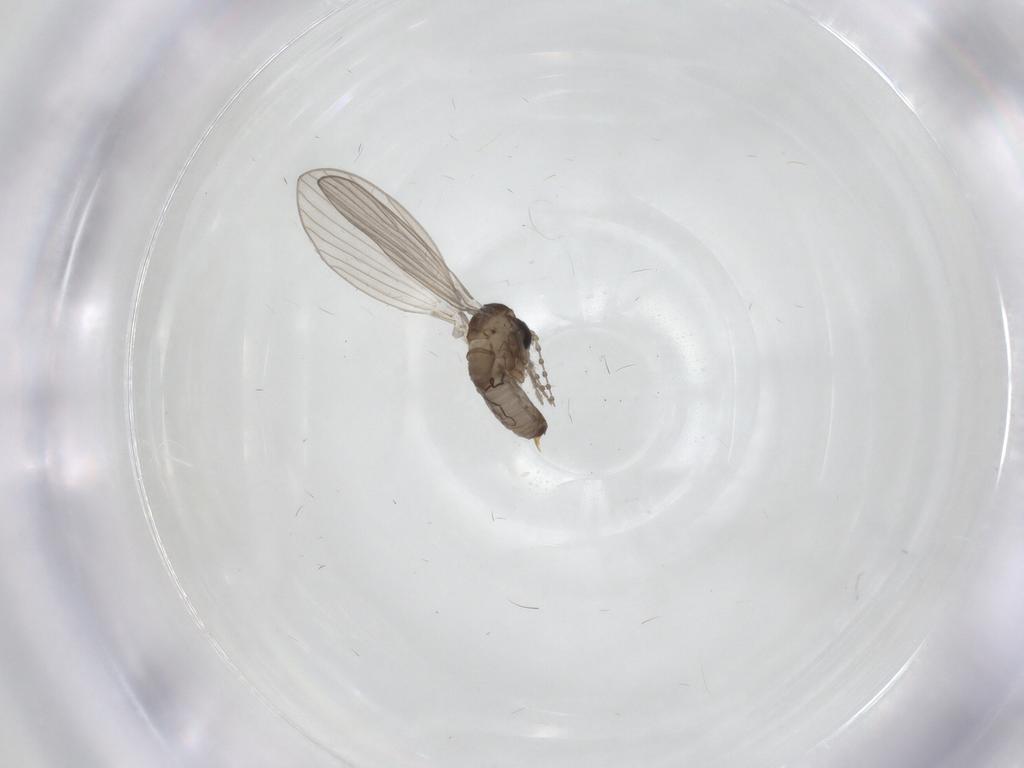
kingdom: Animalia
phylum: Arthropoda
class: Insecta
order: Diptera
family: Psychodidae
